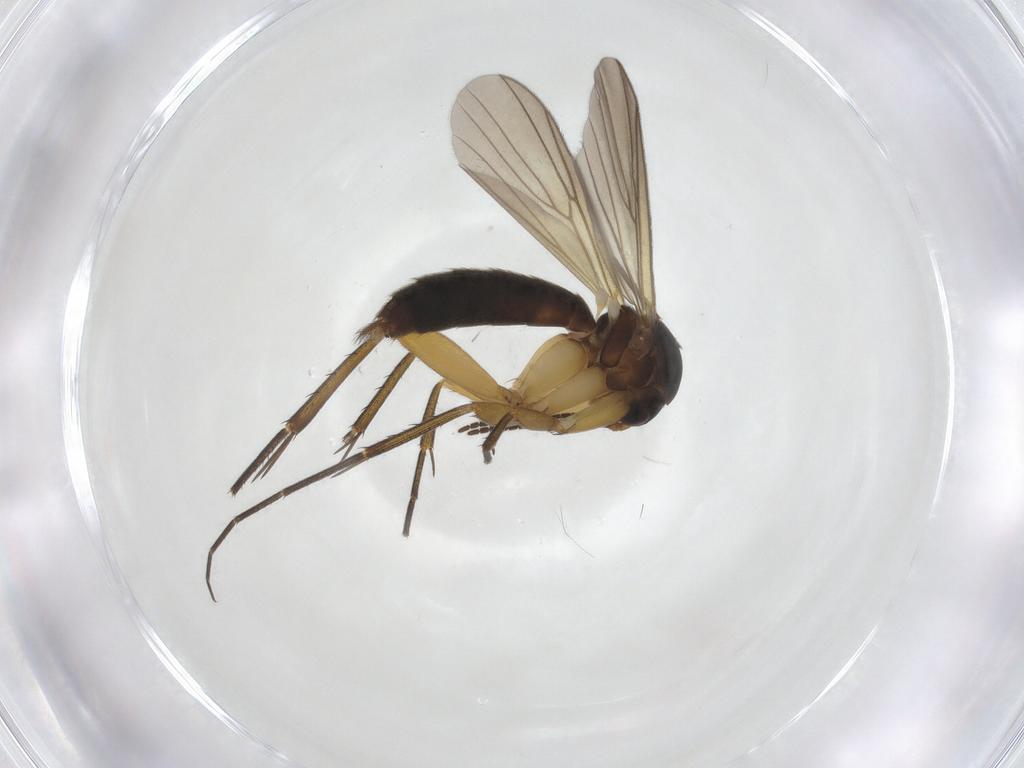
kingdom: Animalia
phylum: Arthropoda
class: Insecta
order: Diptera
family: Mycetophilidae
